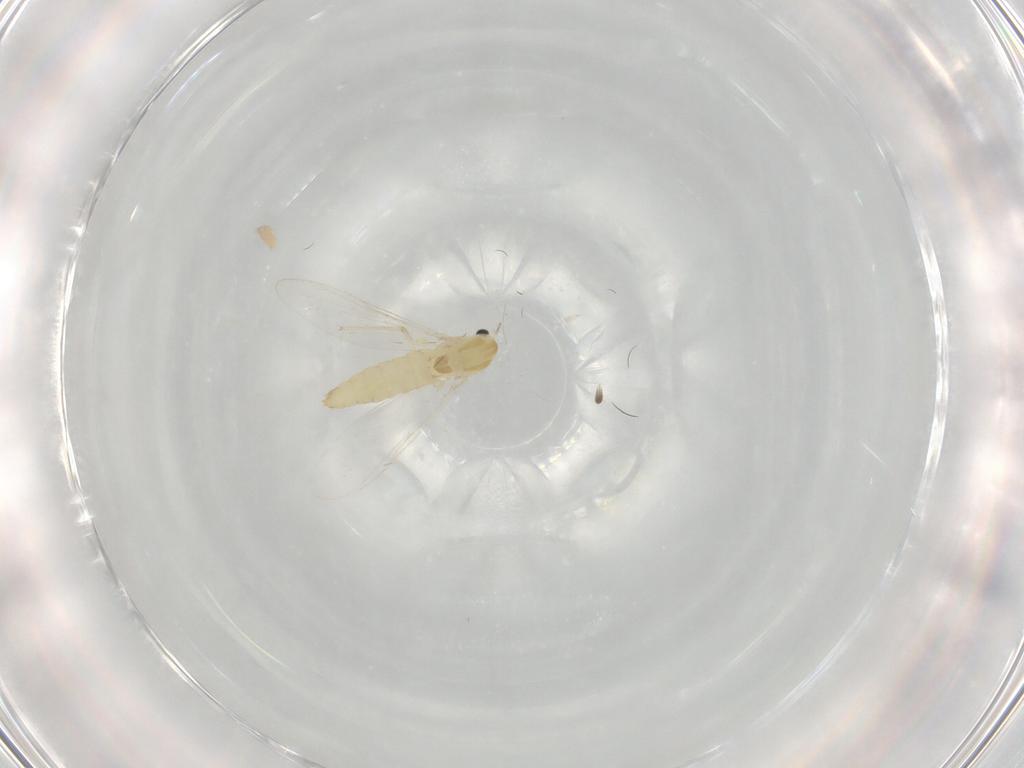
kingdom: Animalia
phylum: Arthropoda
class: Insecta
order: Diptera
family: Chironomidae
